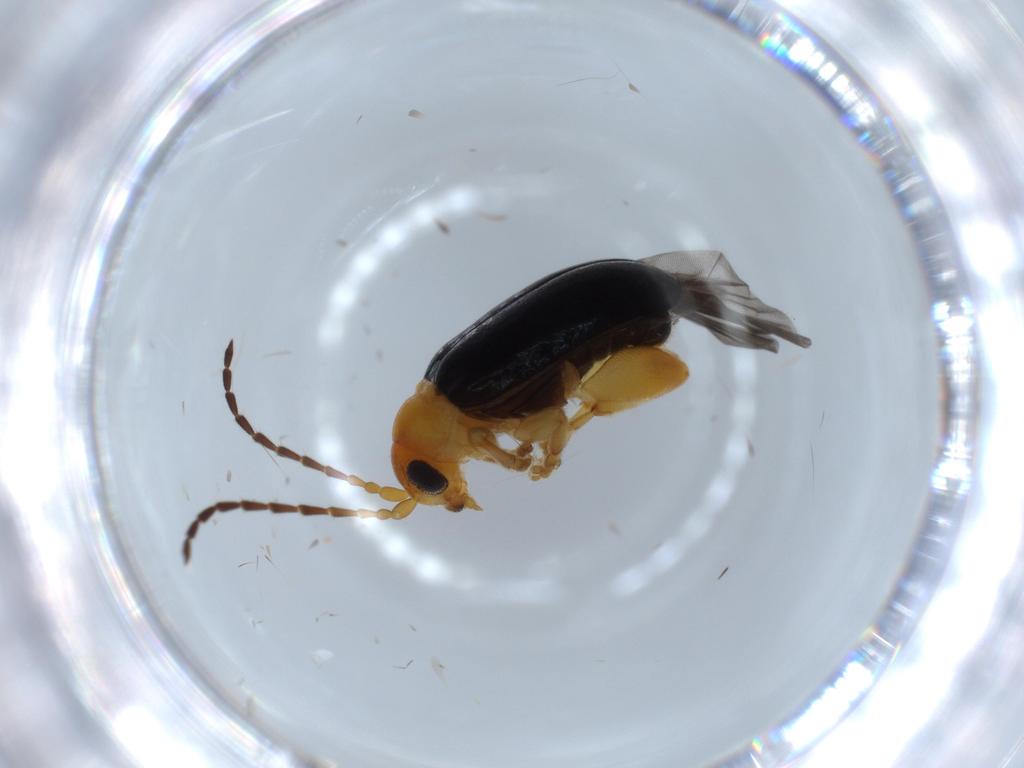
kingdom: Animalia
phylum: Arthropoda
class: Insecta
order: Coleoptera
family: Chrysomelidae
